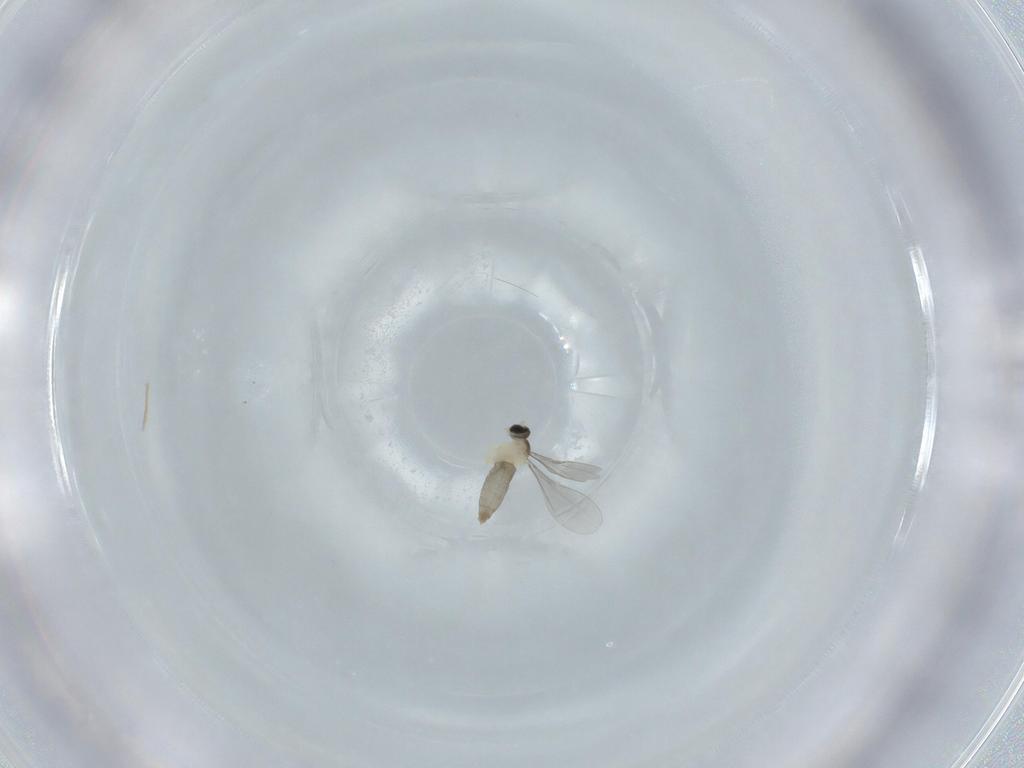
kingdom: Animalia
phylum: Arthropoda
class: Insecta
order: Diptera
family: Cecidomyiidae
